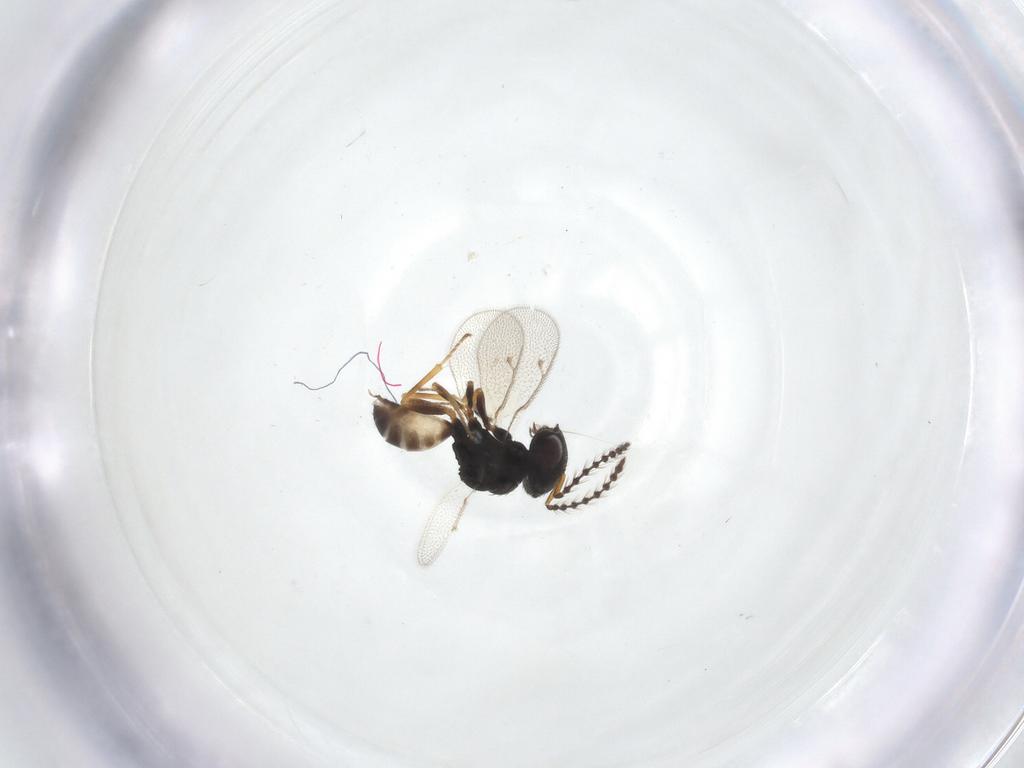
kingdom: Animalia
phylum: Arthropoda
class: Insecta
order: Hymenoptera
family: Pteromalidae
